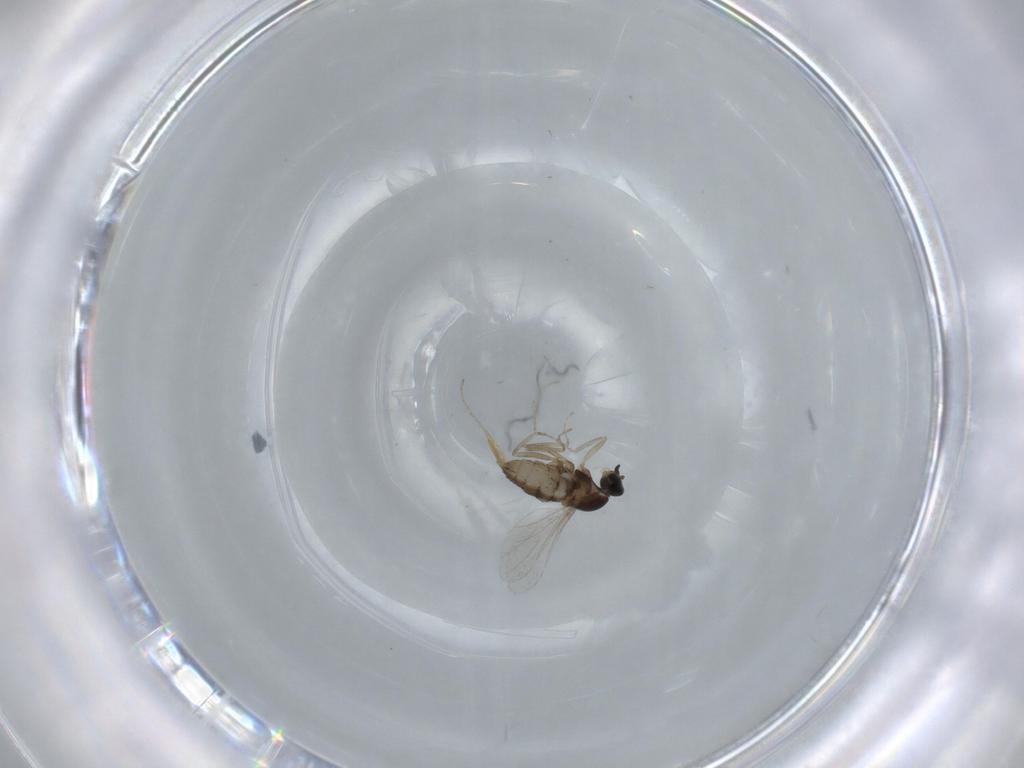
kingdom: Animalia
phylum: Arthropoda
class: Insecta
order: Diptera
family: Cecidomyiidae
